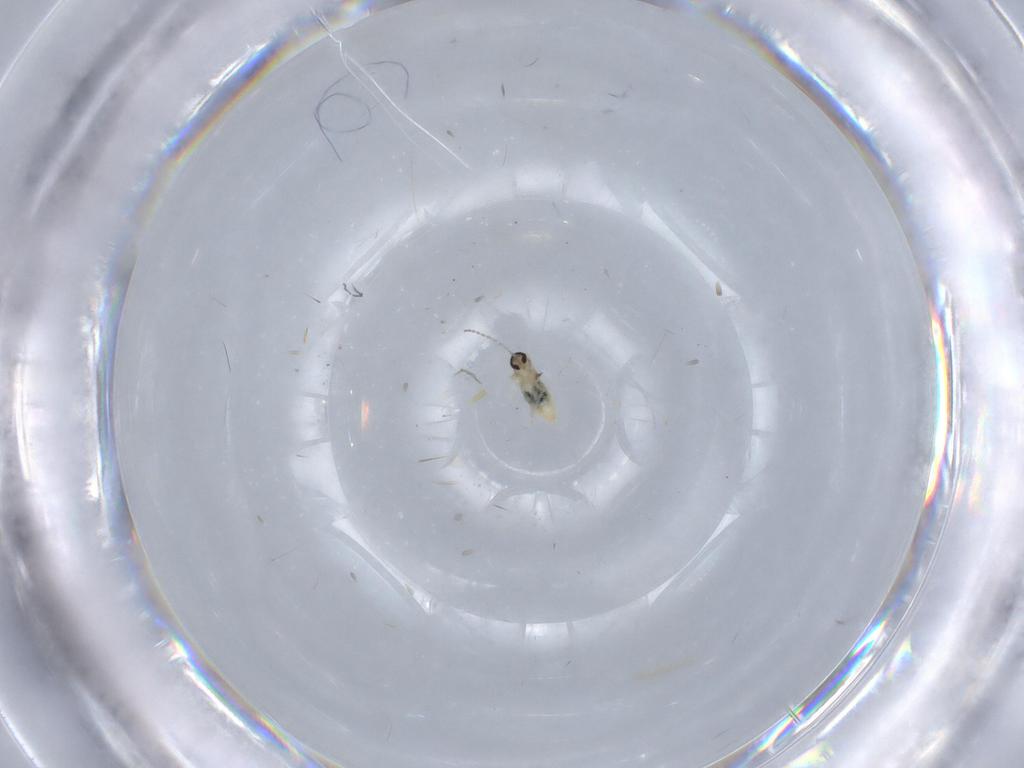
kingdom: Animalia
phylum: Arthropoda
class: Insecta
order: Diptera
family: Cecidomyiidae
